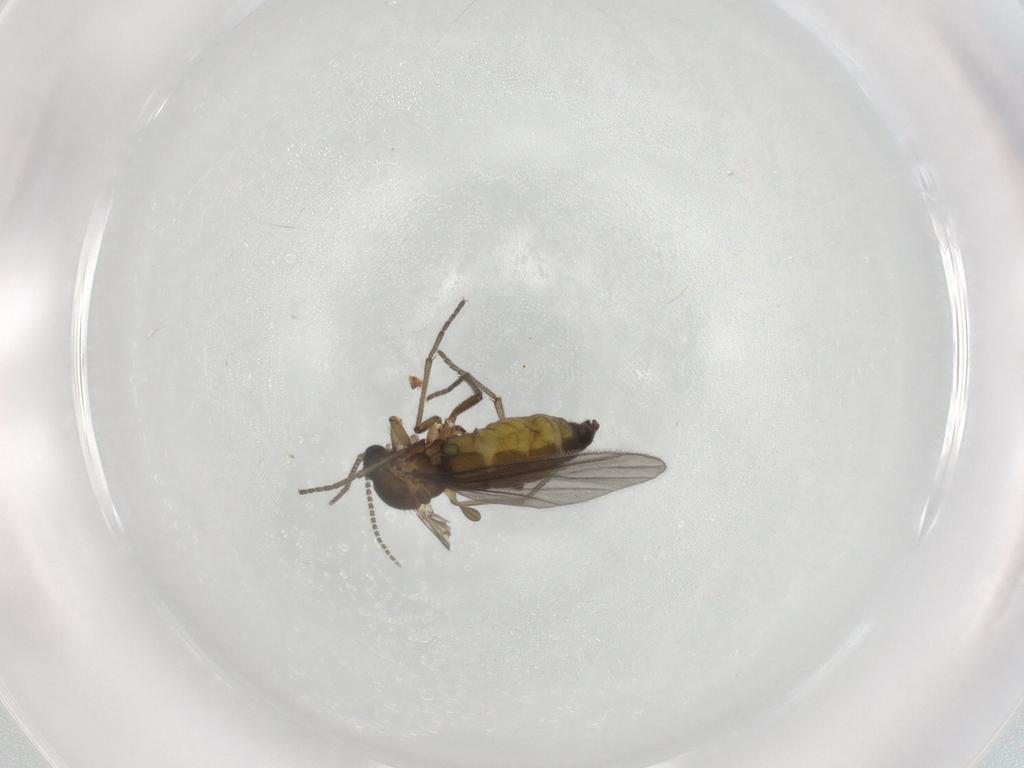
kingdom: Animalia
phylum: Arthropoda
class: Insecta
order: Diptera
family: Sciaridae
